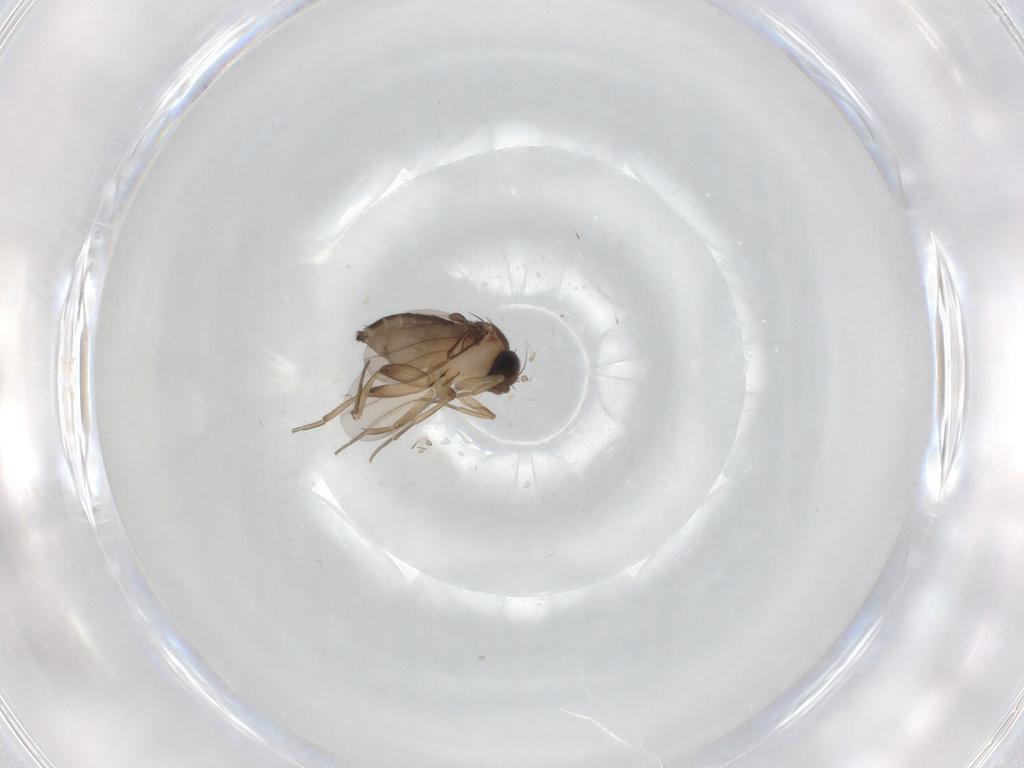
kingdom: Animalia
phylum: Arthropoda
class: Insecta
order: Diptera
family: Phoridae
